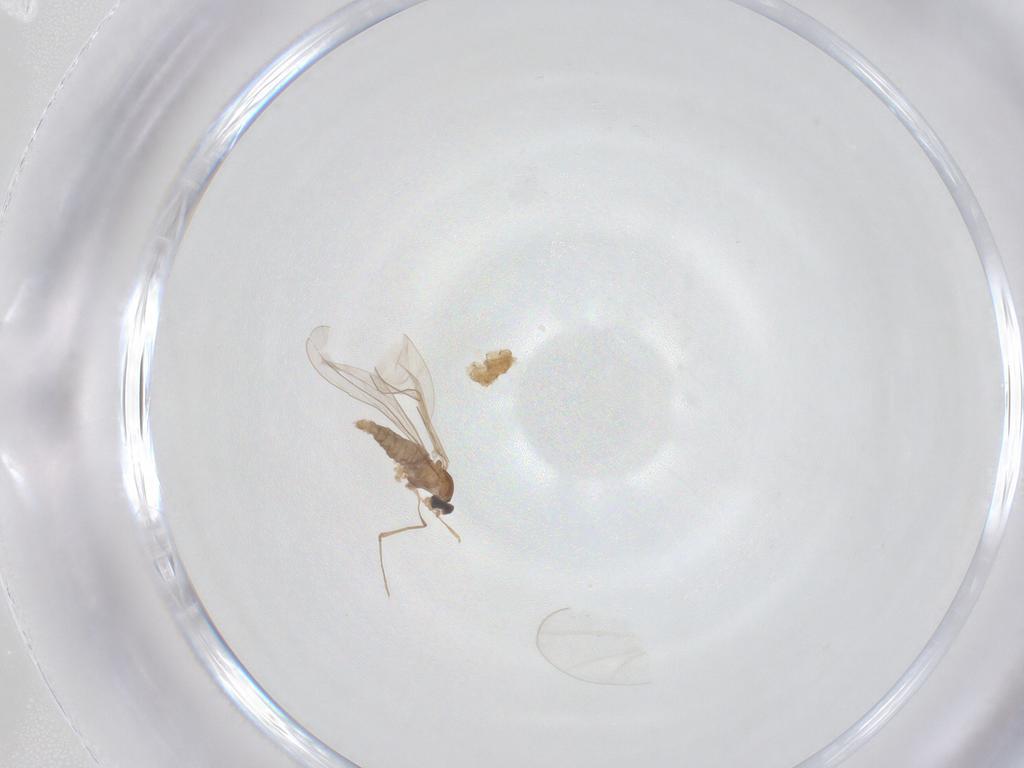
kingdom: Animalia
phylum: Arthropoda
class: Insecta
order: Diptera
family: Cecidomyiidae
